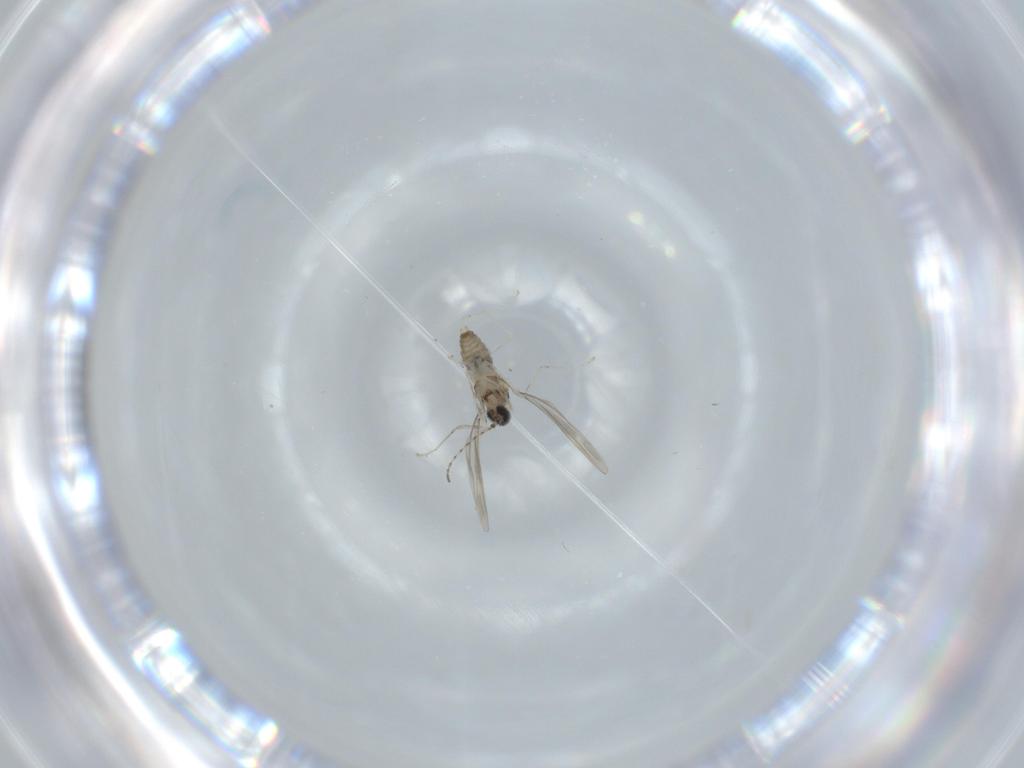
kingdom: Animalia
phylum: Arthropoda
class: Insecta
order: Diptera
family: Cecidomyiidae
